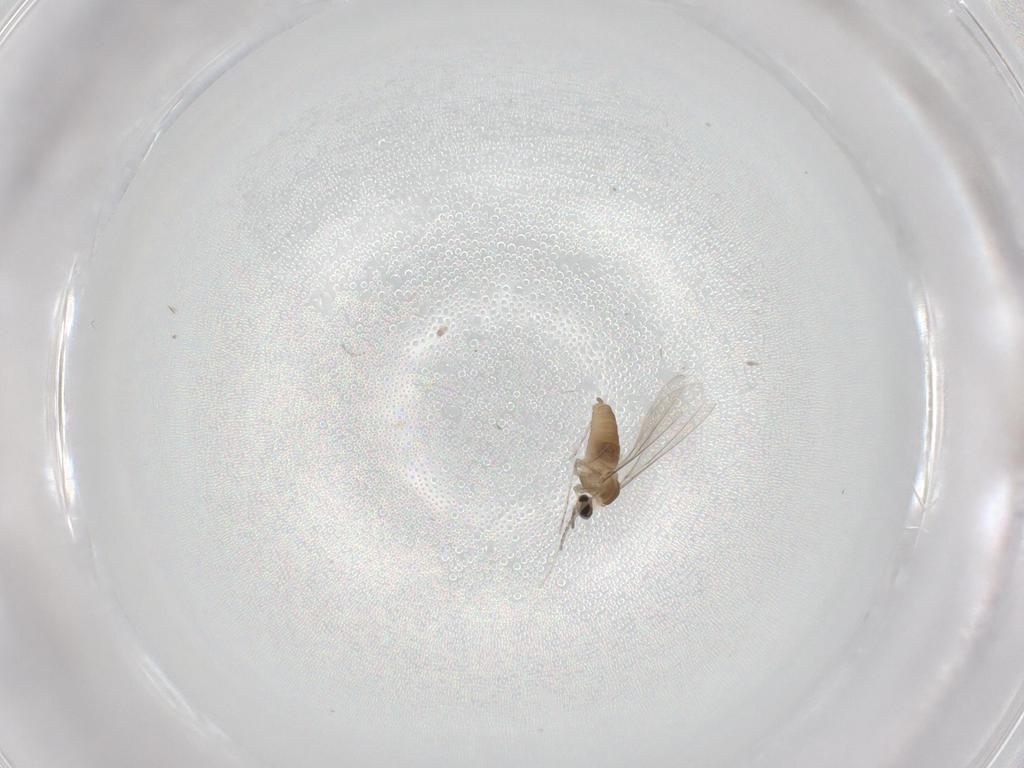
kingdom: Animalia
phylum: Arthropoda
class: Insecta
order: Diptera
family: Cecidomyiidae
